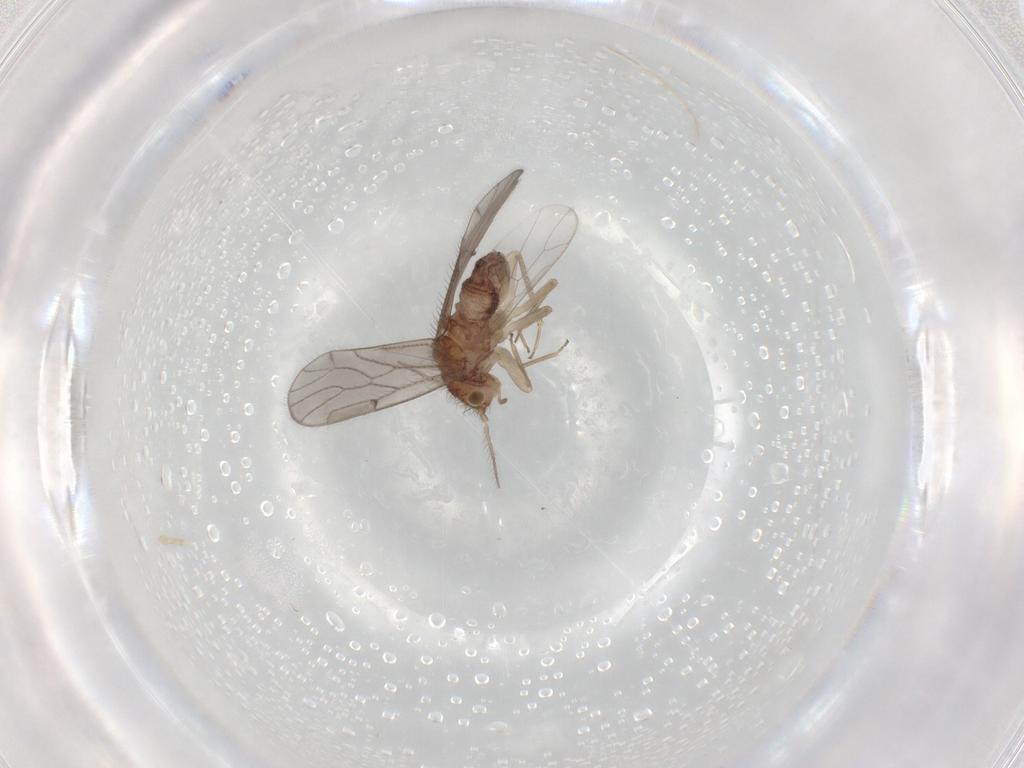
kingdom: Animalia
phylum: Arthropoda
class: Insecta
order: Psocodea
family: Ectopsocidae
